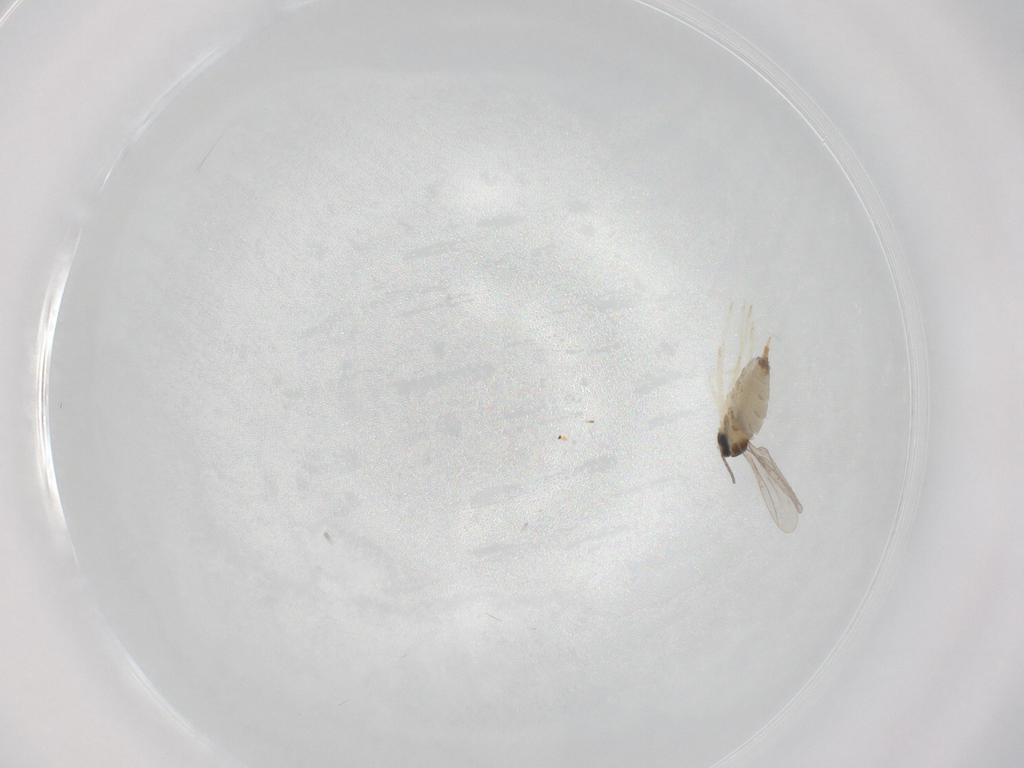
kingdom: Animalia
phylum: Arthropoda
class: Insecta
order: Diptera
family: Cecidomyiidae
